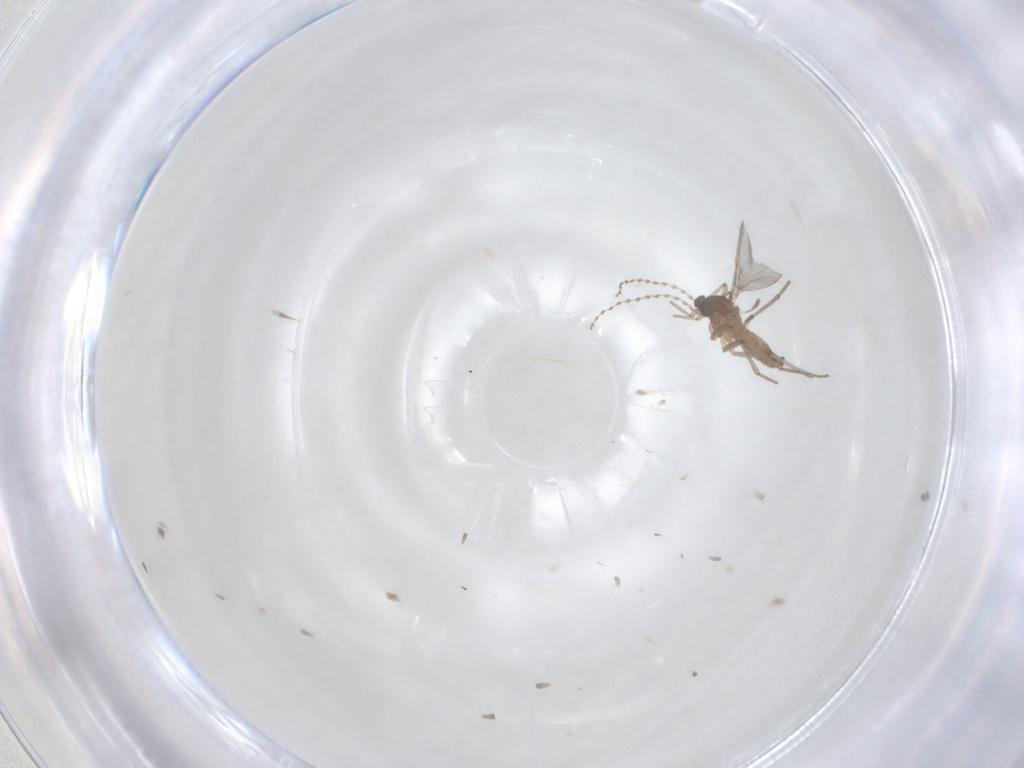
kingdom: Animalia
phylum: Arthropoda
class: Insecta
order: Diptera
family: Cecidomyiidae
